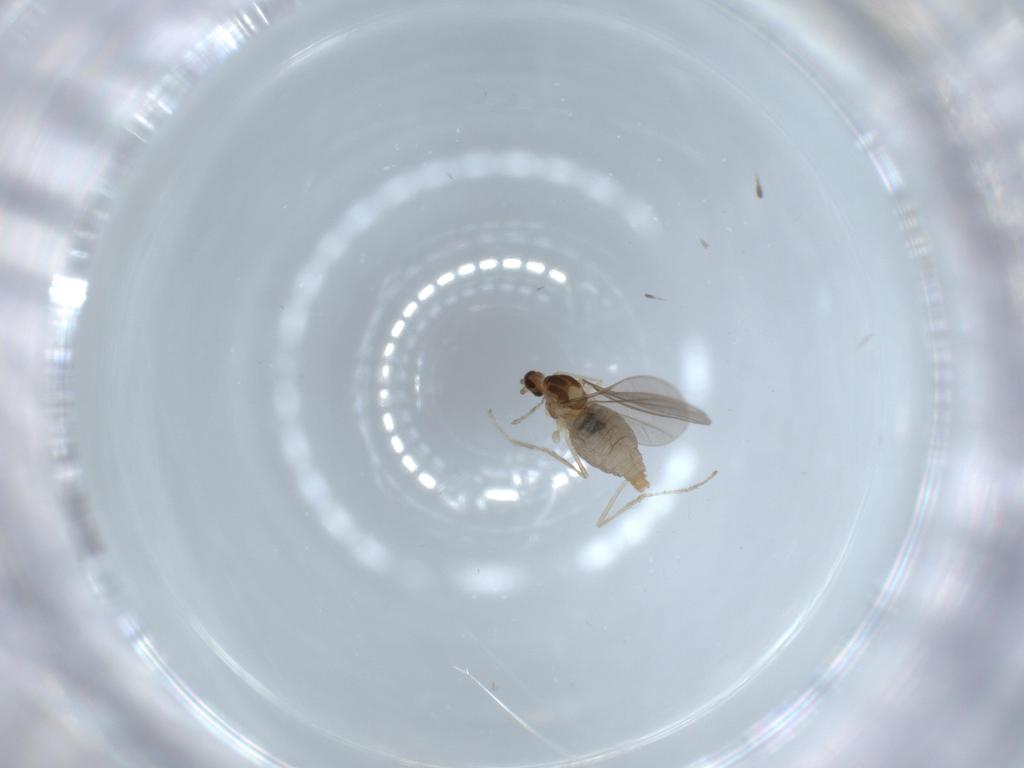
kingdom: Animalia
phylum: Arthropoda
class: Insecta
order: Diptera
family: Cecidomyiidae
